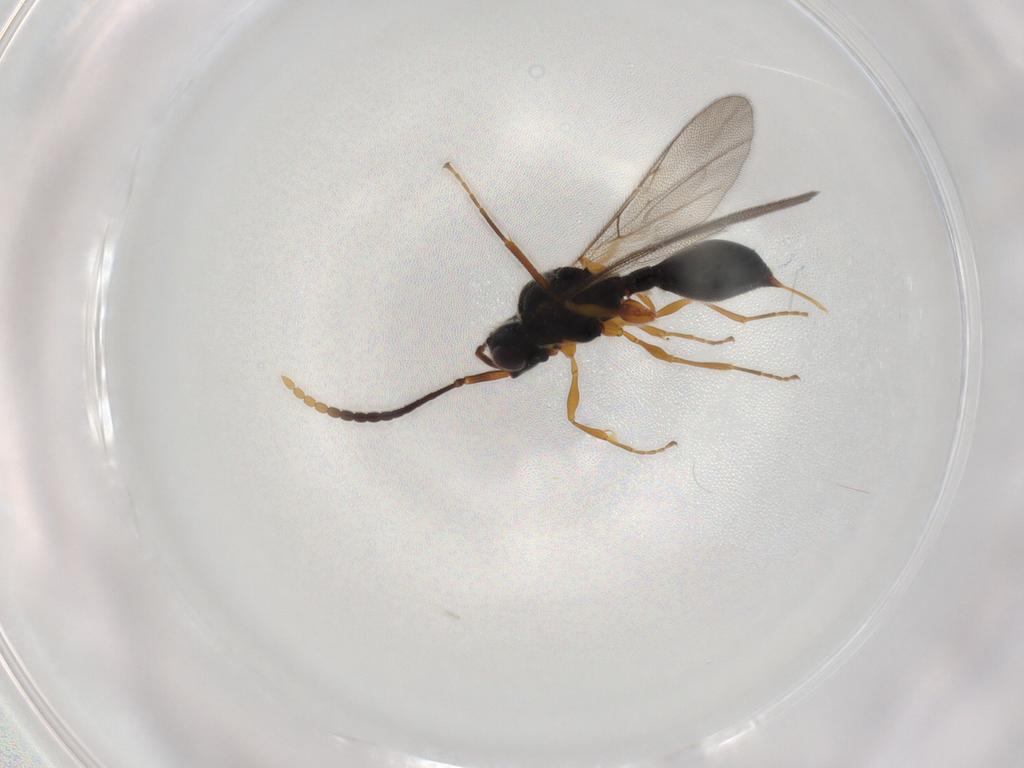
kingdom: Animalia
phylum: Arthropoda
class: Insecta
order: Hymenoptera
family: Diapriidae
